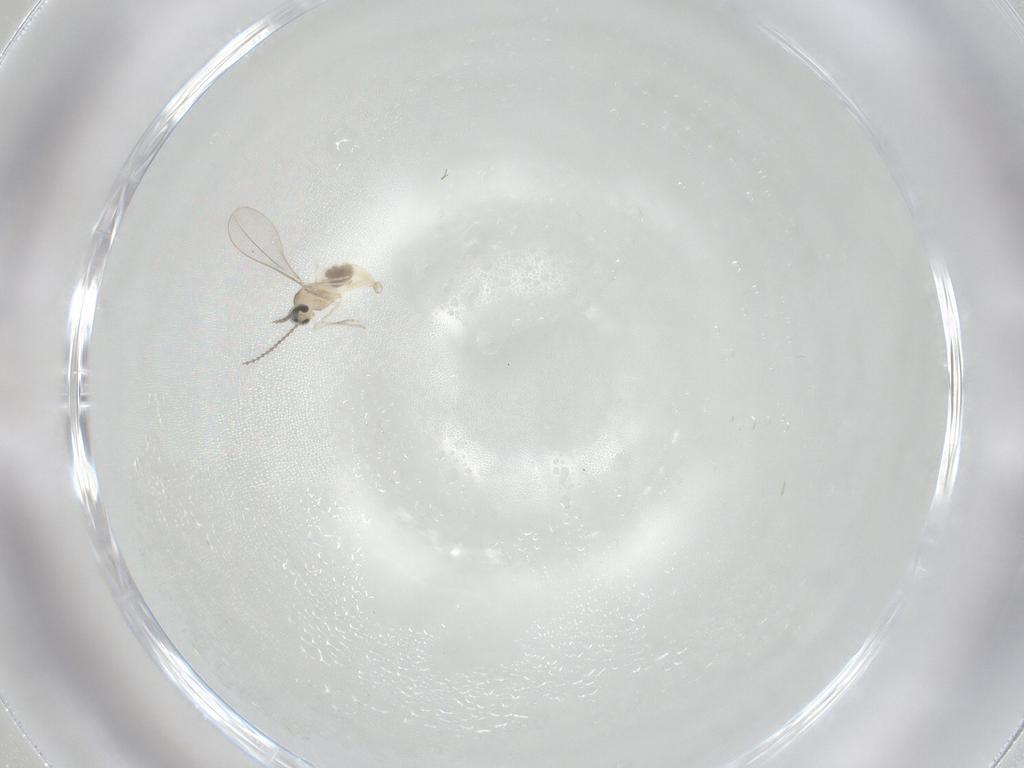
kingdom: Animalia
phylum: Arthropoda
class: Insecta
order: Diptera
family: Cecidomyiidae
